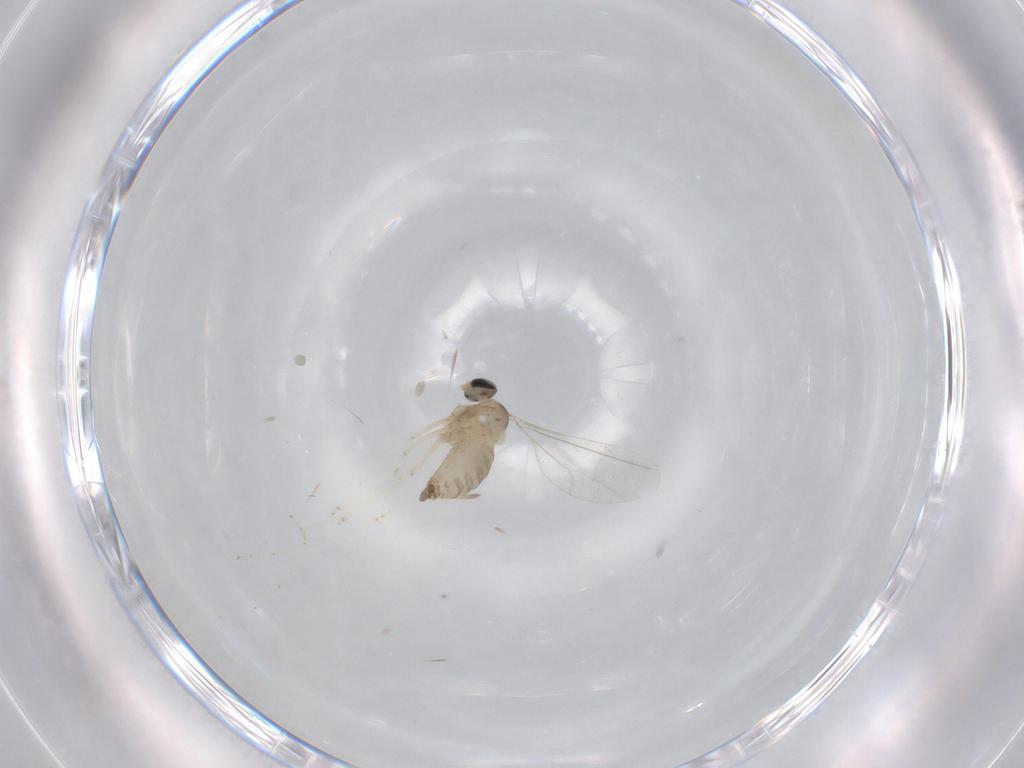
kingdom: Animalia
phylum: Arthropoda
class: Insecta
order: Diptera
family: Cecidomyiidae
